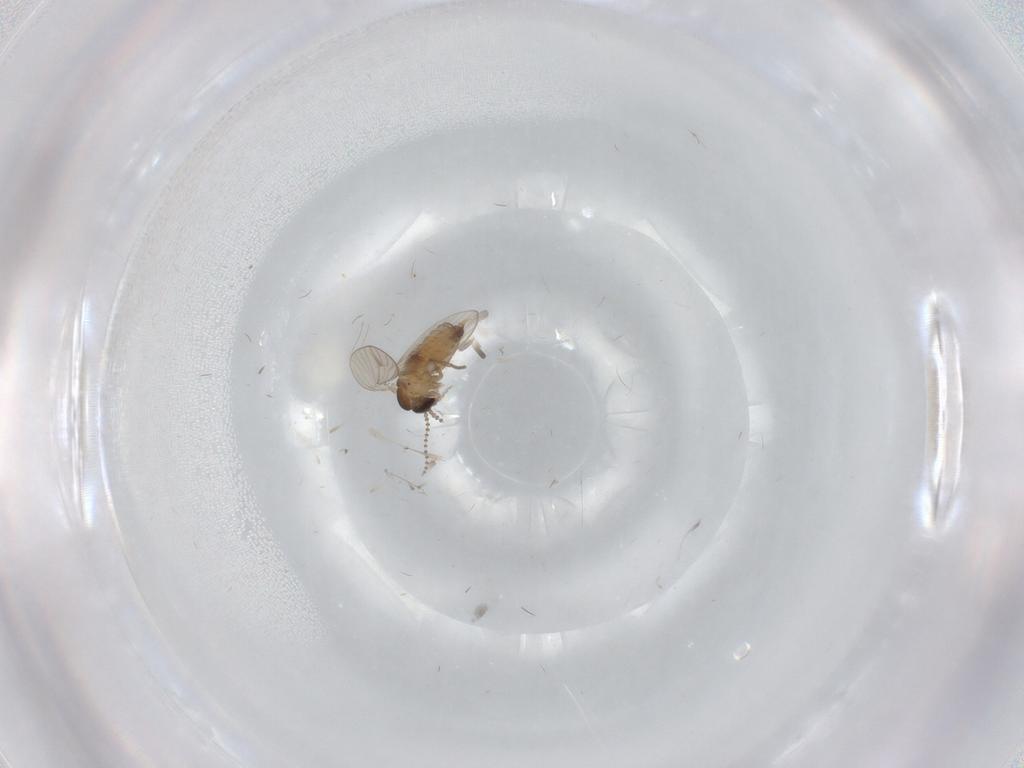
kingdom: Animalia
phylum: Arthropoda
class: Insecta
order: Diptera
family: Psychodidae
